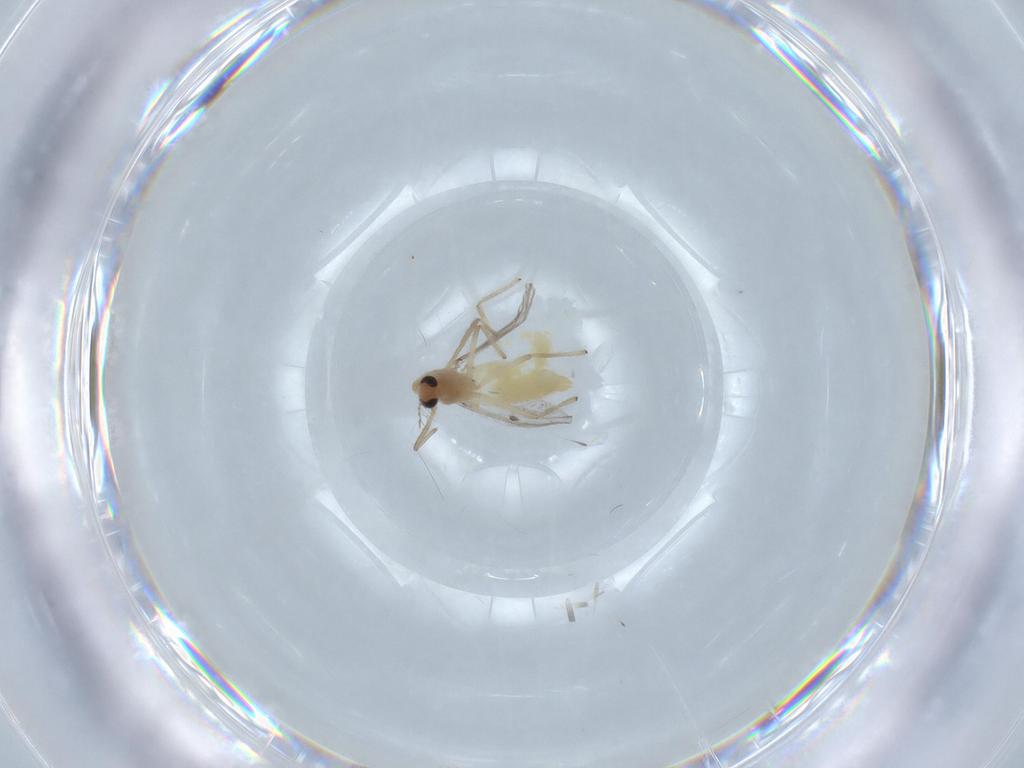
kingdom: Animalia
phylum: Arthropoda
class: Insecta
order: Diptera
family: Chironomidae
